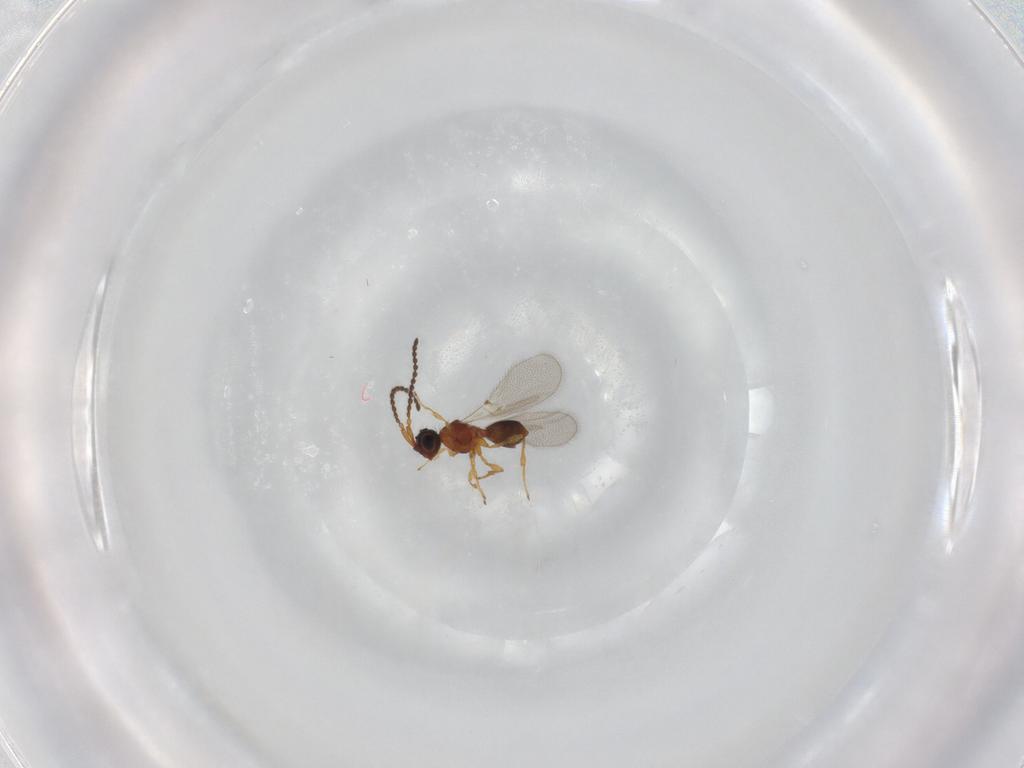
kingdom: Animalia
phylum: Arthropoda
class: Insecta
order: Hymenoptera
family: Diapriidae
